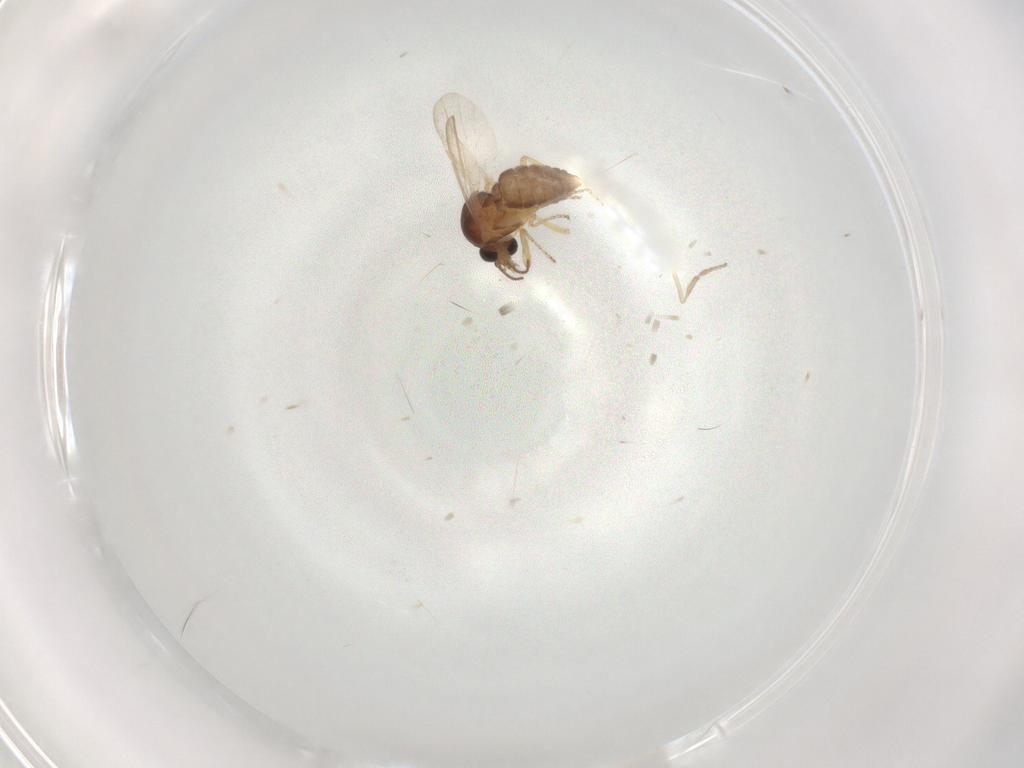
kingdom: Animalia
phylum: Arthropoda
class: Insecta
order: Diptera
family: Ceratopogonidae
